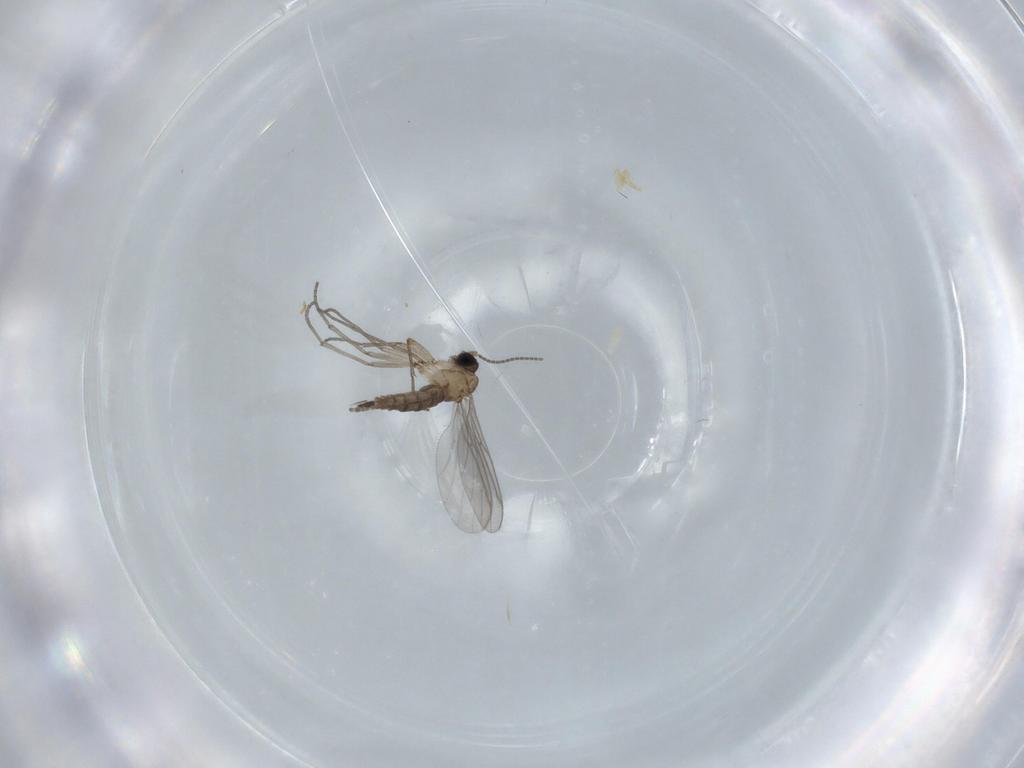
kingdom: Animalia
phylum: Arthropoda
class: Insecta
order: Diptera
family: Sciaridae
